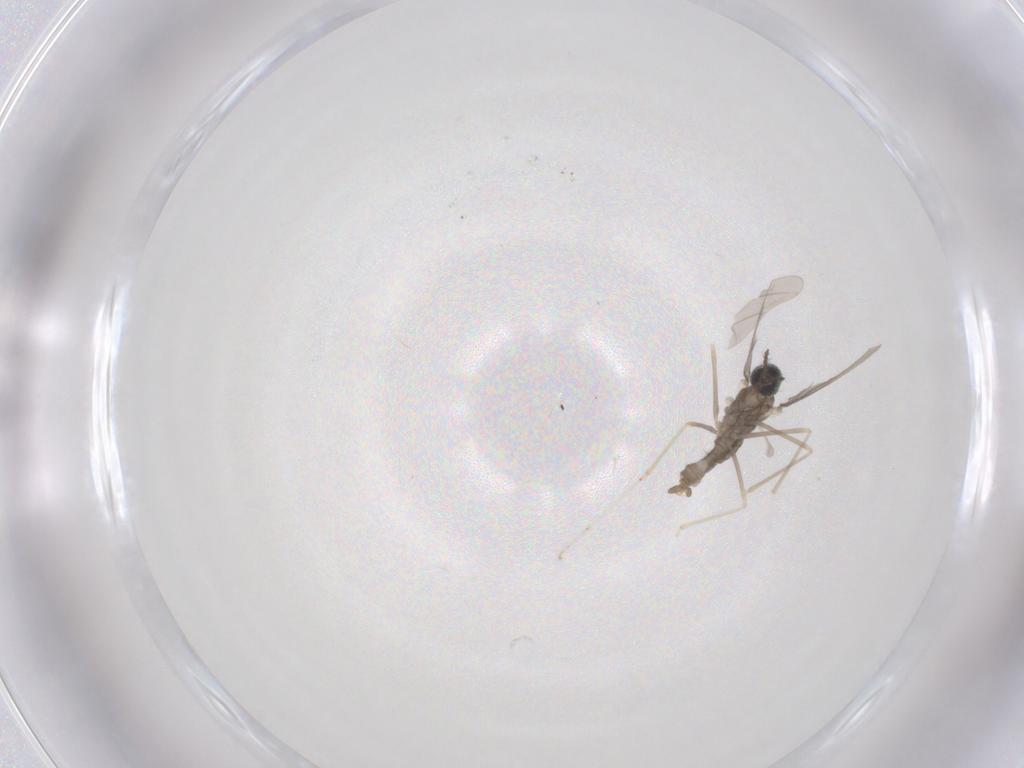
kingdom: Animalia
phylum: Arthropoda
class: Insecta
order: Diptera
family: Cecidomyiidae
